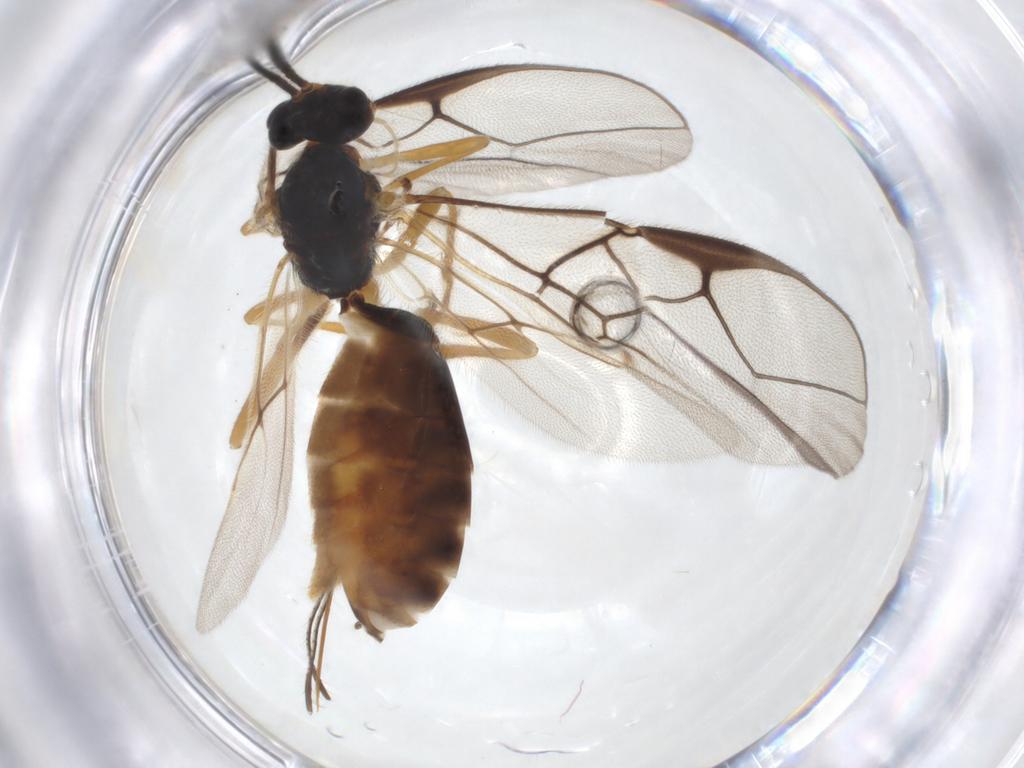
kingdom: Animalia
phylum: Arthropoda
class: Insecta
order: Hymenoptera
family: Braconidae
